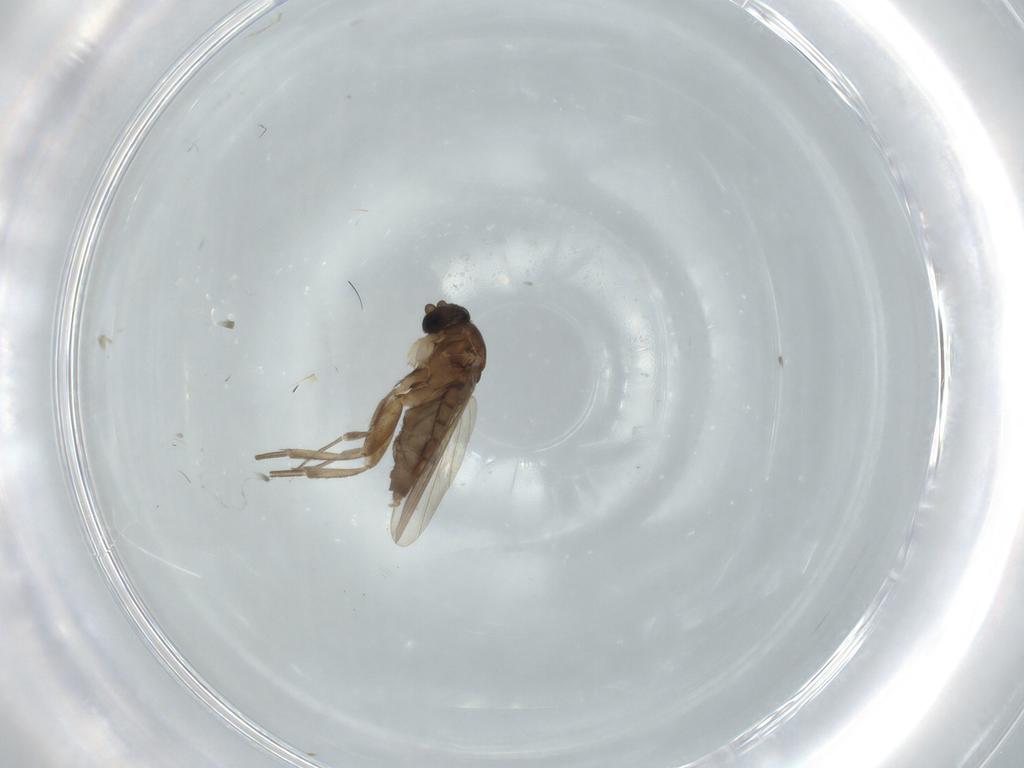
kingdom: Animalia
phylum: Arthropoda
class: Insecta
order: Diptera
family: Phoridae
